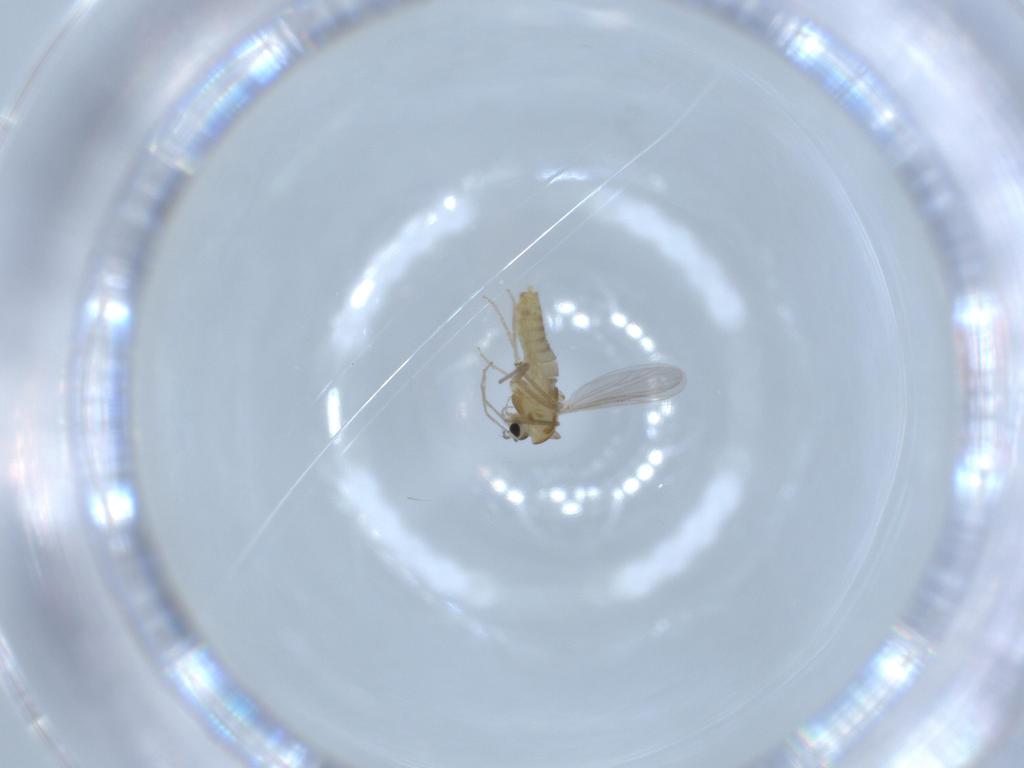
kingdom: Animalia
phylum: Arthropoda
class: Insecta
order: Diptera
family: Chironomidae
